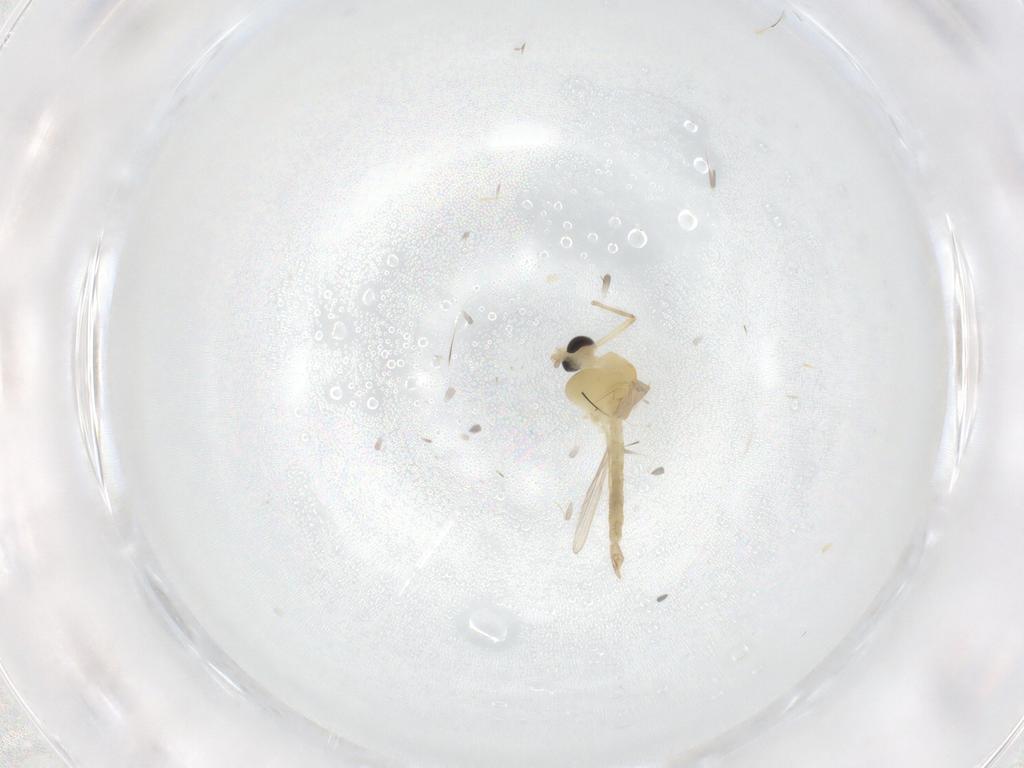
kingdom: Animalia
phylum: Arthropoda
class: Insecta
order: Diptera
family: Chironomidae
